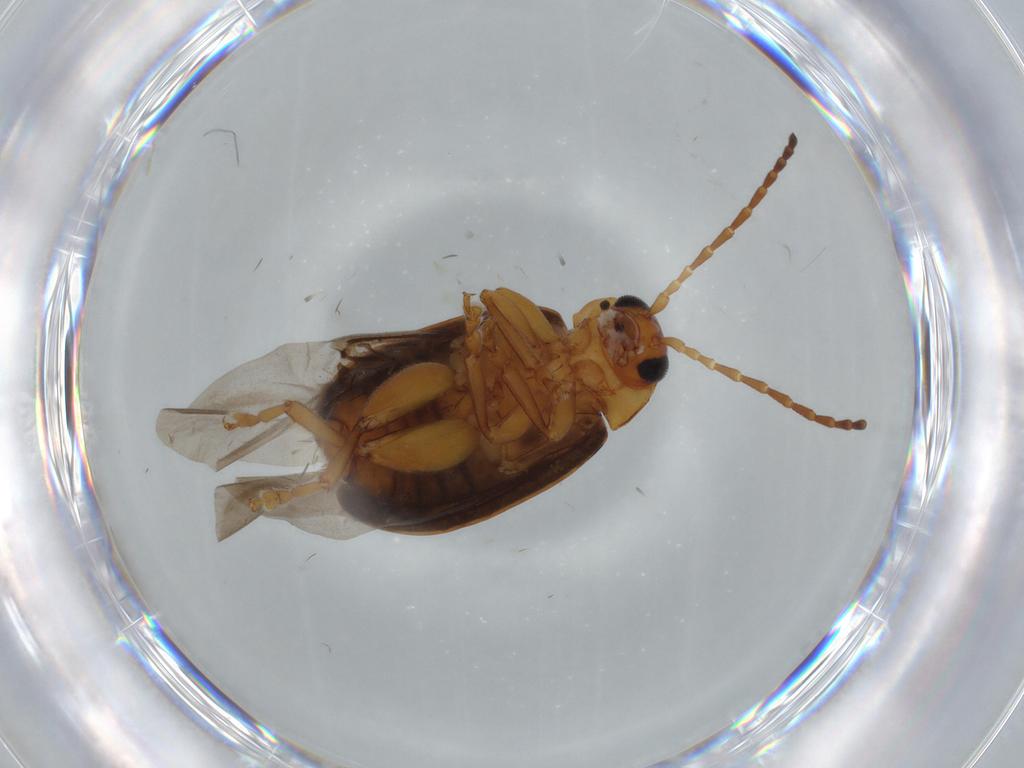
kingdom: Animalia
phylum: Arthropoda
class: Insecta
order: Coleoptera
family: Chrysomelidae
